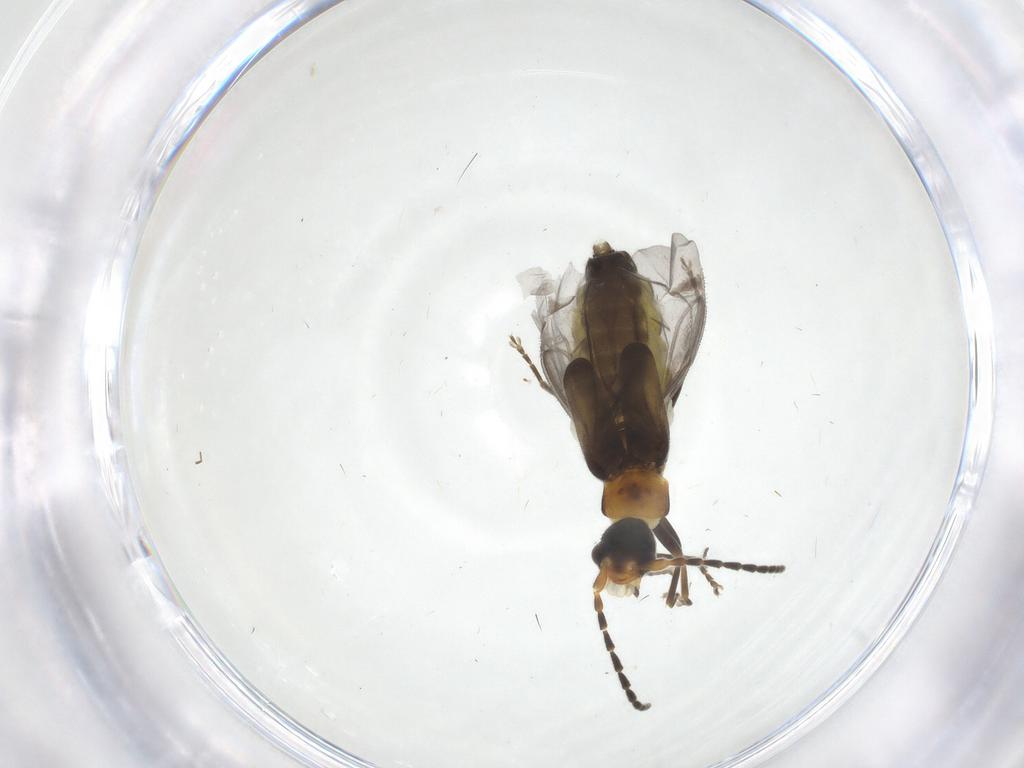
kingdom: Animalia
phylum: Arthropoda
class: Insecta
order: Coleoptera
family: Cantharidae
